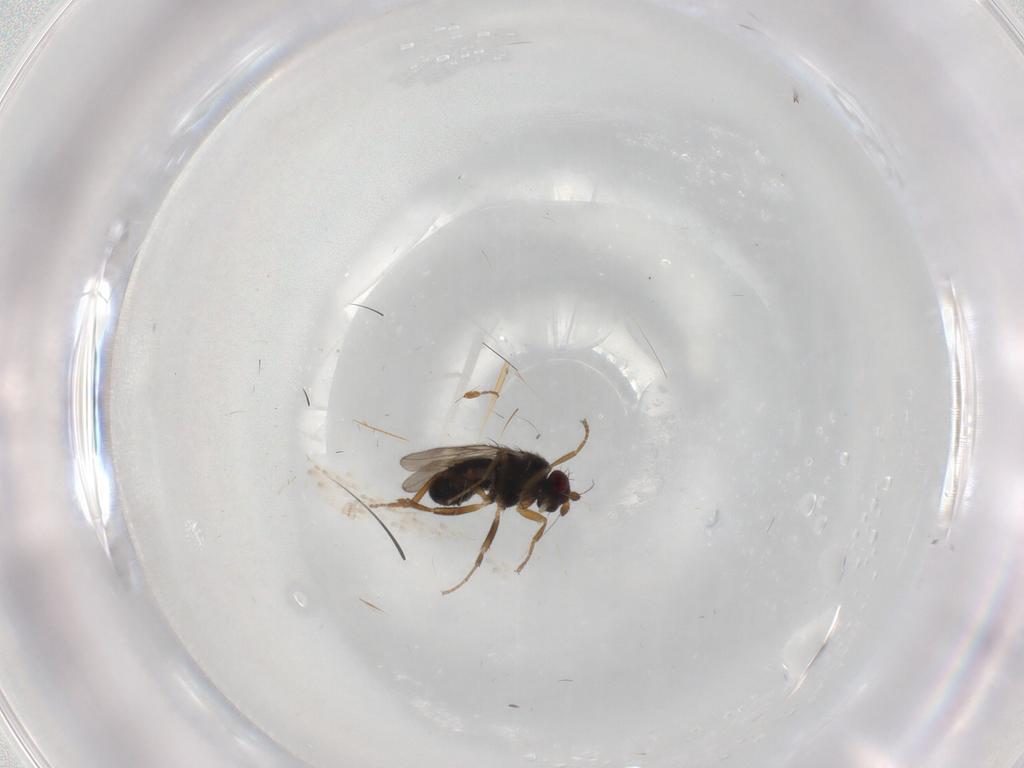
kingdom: Animalia
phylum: Arthropoda
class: Insecta
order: Diptera
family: Sphaeroceridae
